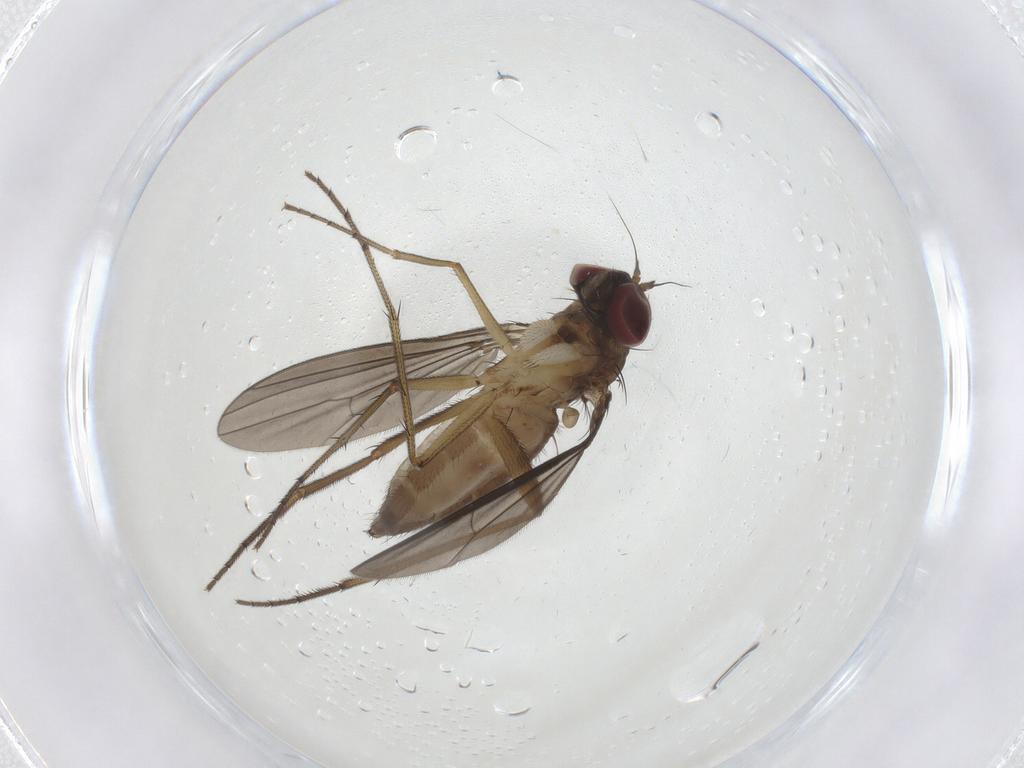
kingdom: Animalia
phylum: Arthropoda
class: Insecta
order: Diptera
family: Dolichopodidae
